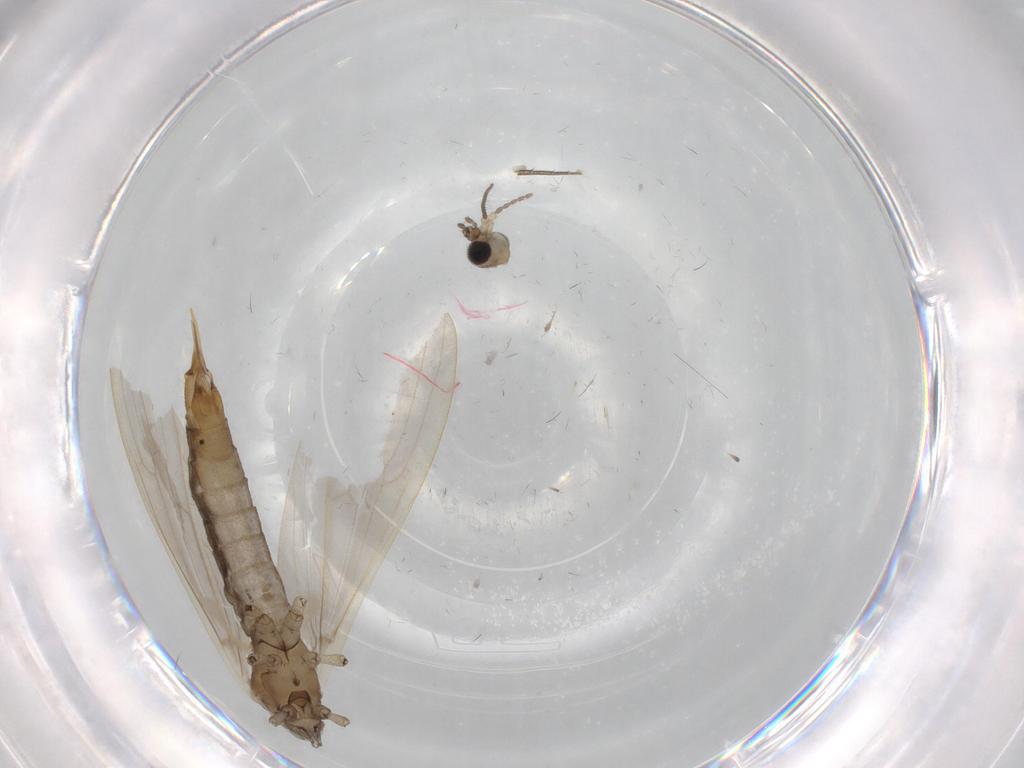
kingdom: Animalia
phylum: Arthropoda
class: Insecta
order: Diptera
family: Limoniidae
